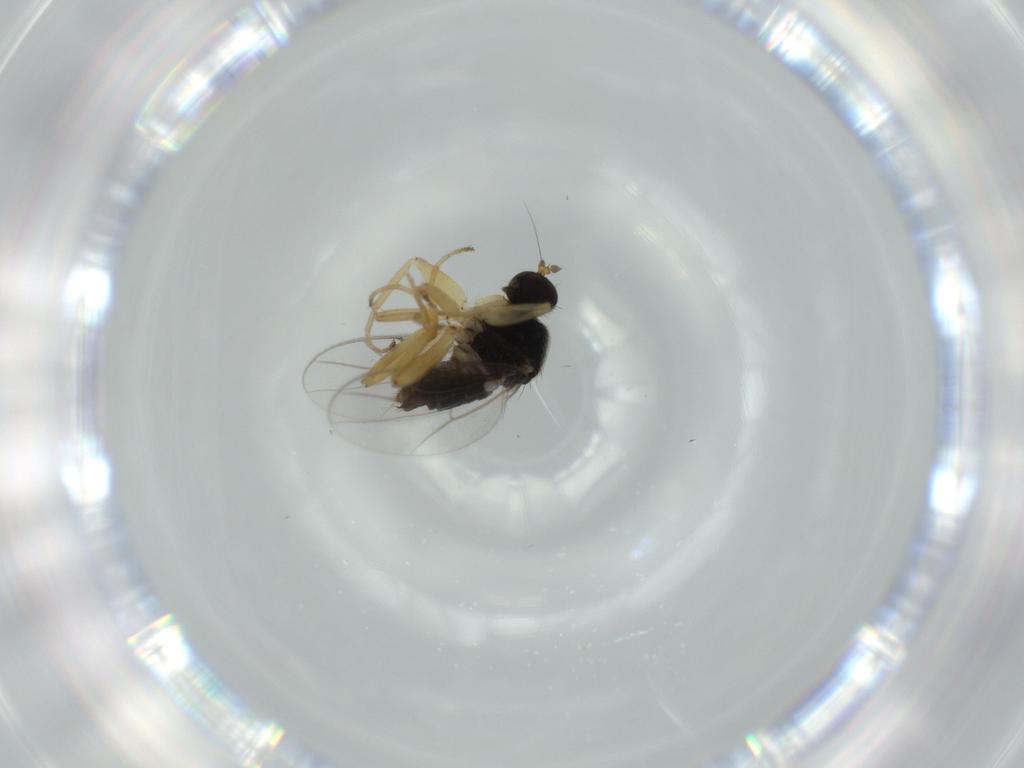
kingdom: Animalia
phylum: Arthropoda
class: Insecta
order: Diptera
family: Hybotidae
